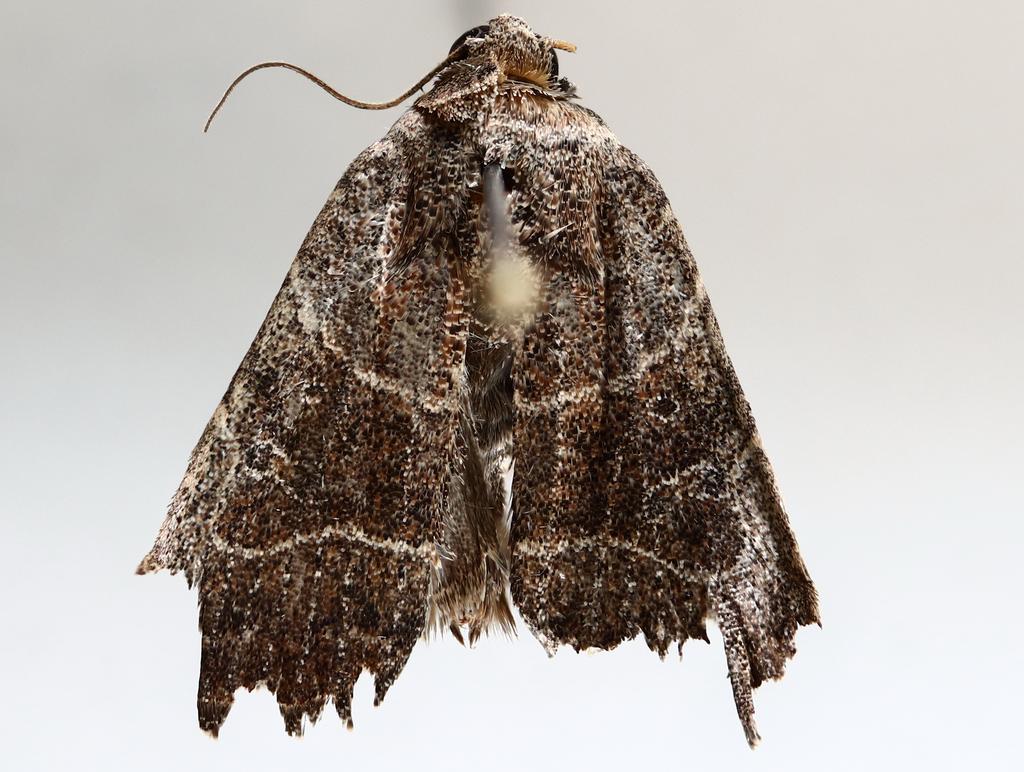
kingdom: Animalia
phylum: Arthropoda
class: Insecta
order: Diptera
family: Lauxaniidae
